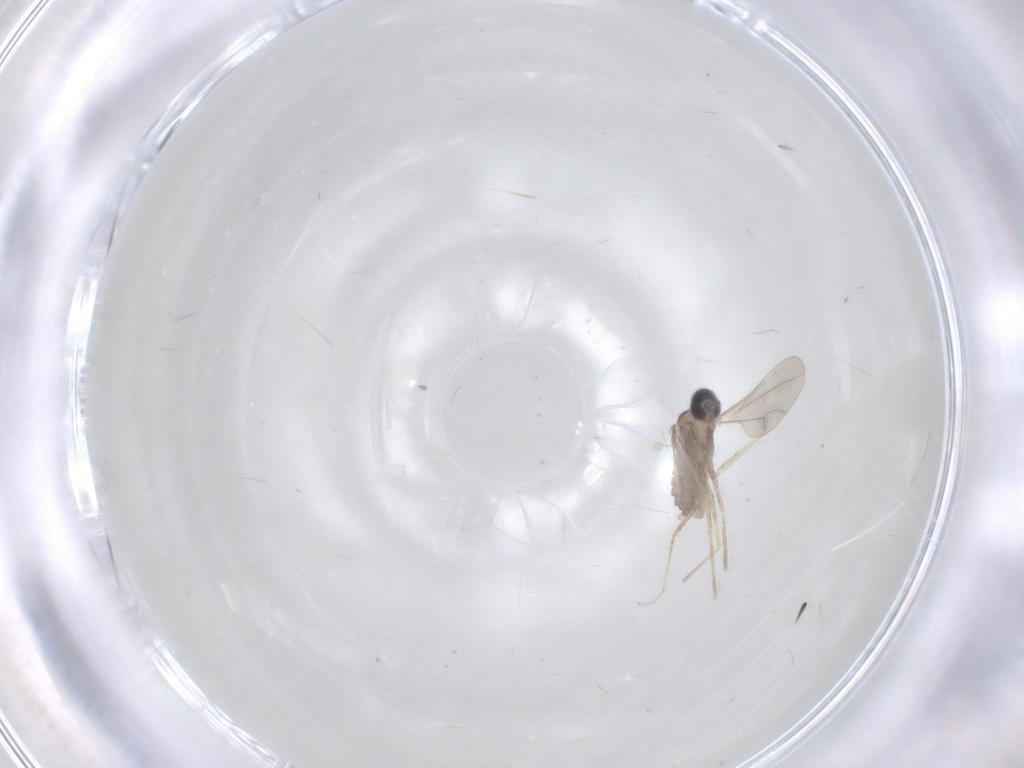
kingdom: Animalia
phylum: Arthropoda
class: Insecta
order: Diptera
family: Cecidomyiidae
